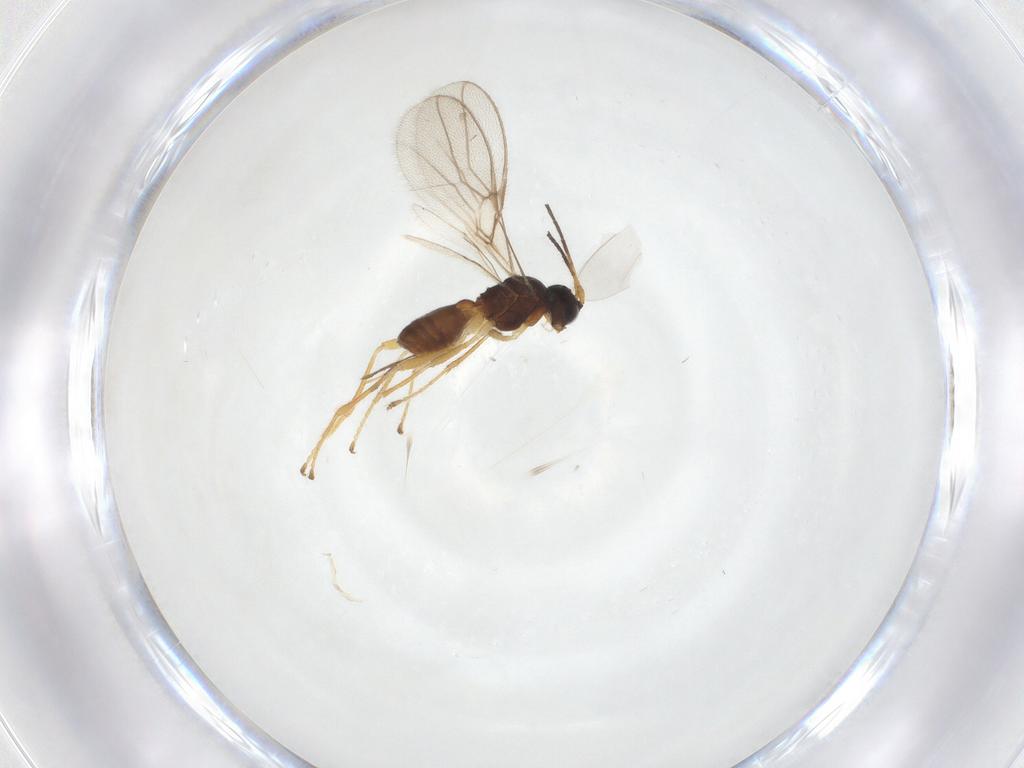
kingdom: Animalia
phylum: Arthropoda
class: Insecta
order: Hymenoptera
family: Braconidae
